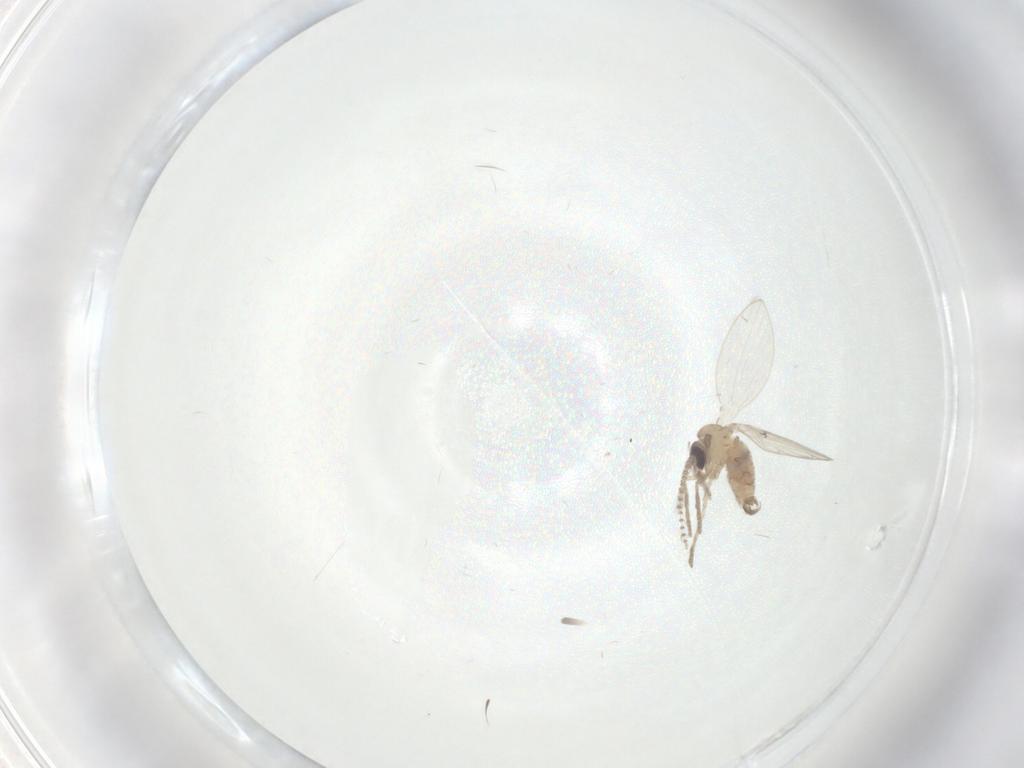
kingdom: Animalia
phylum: Arthropoda
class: Insecta
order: Diptera
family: Psychodidae
